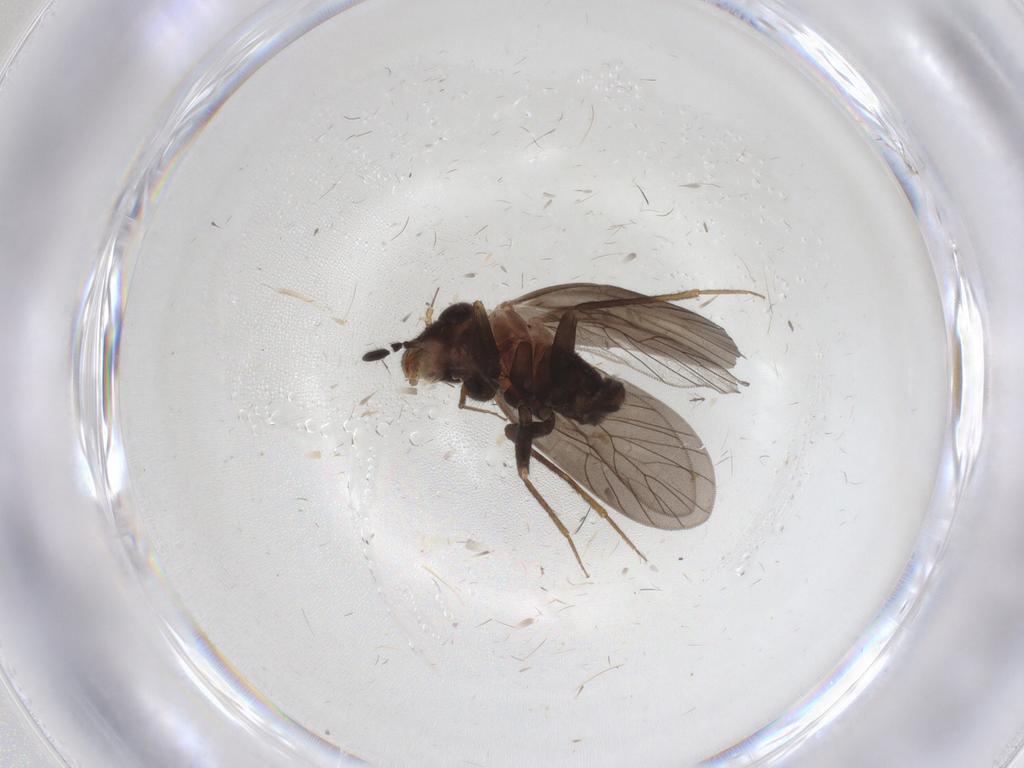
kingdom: Animalia
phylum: Arthropoda
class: Insecta
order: Psocodea
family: Lepidopsocidae
